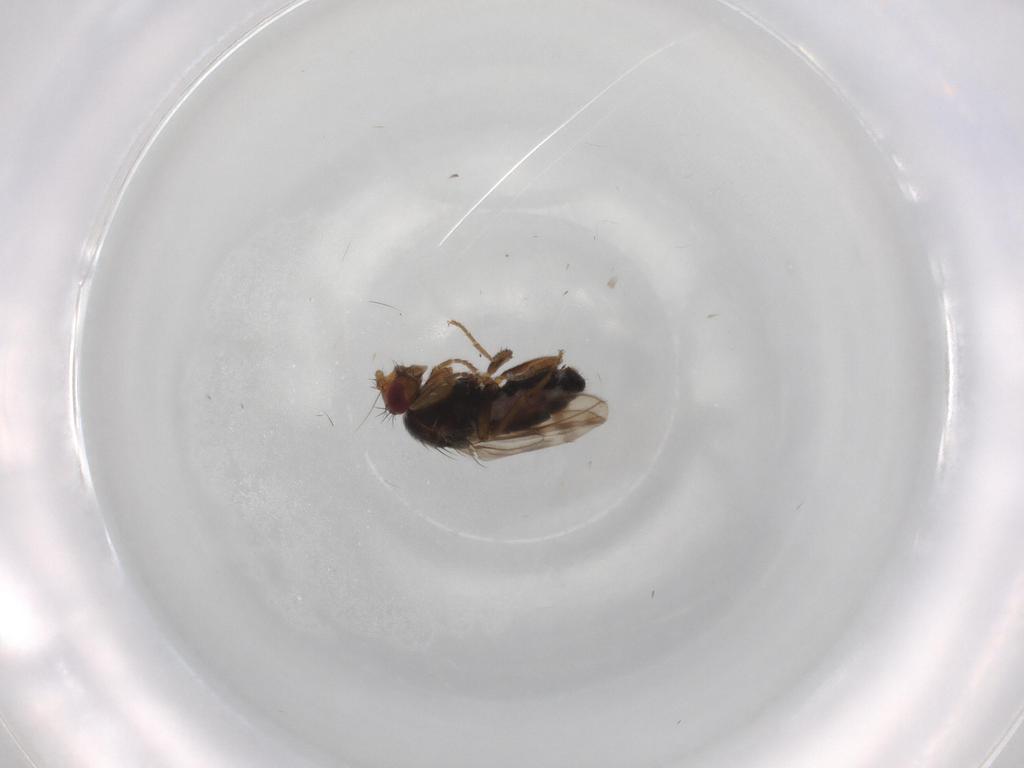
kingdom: Animalia
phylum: Arthropoda
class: Insecta
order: Diptera
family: Sphaeroceridae
